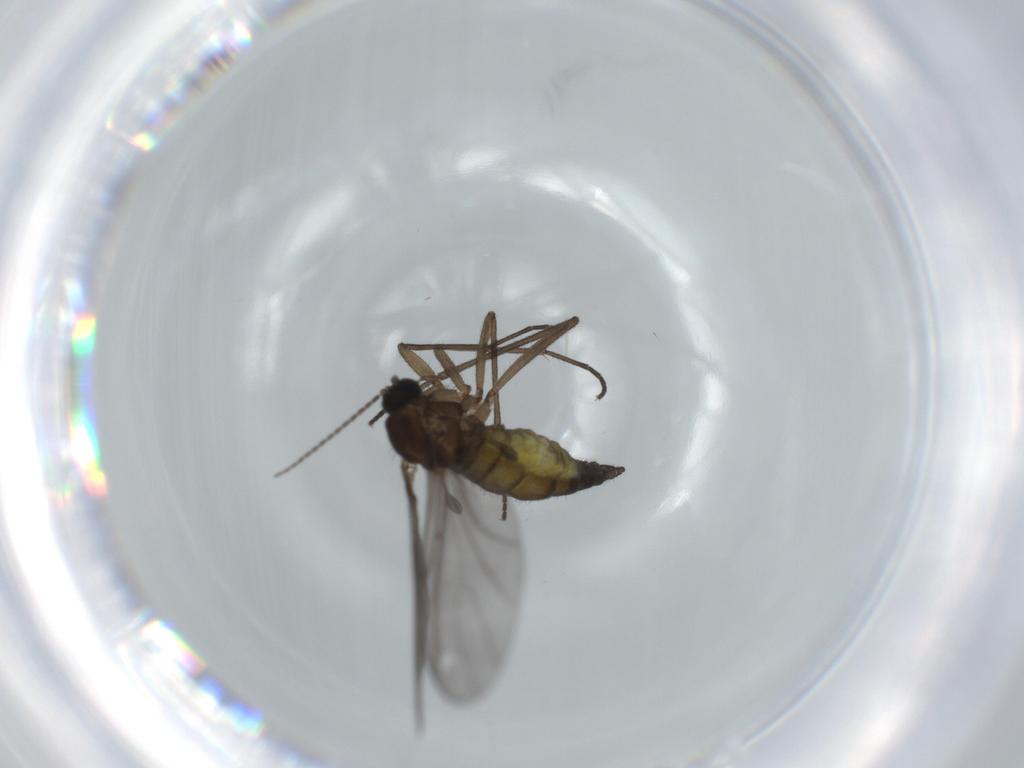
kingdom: Animalia
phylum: Arthropoda
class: Insecta
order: Diptera
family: Sciaridae
